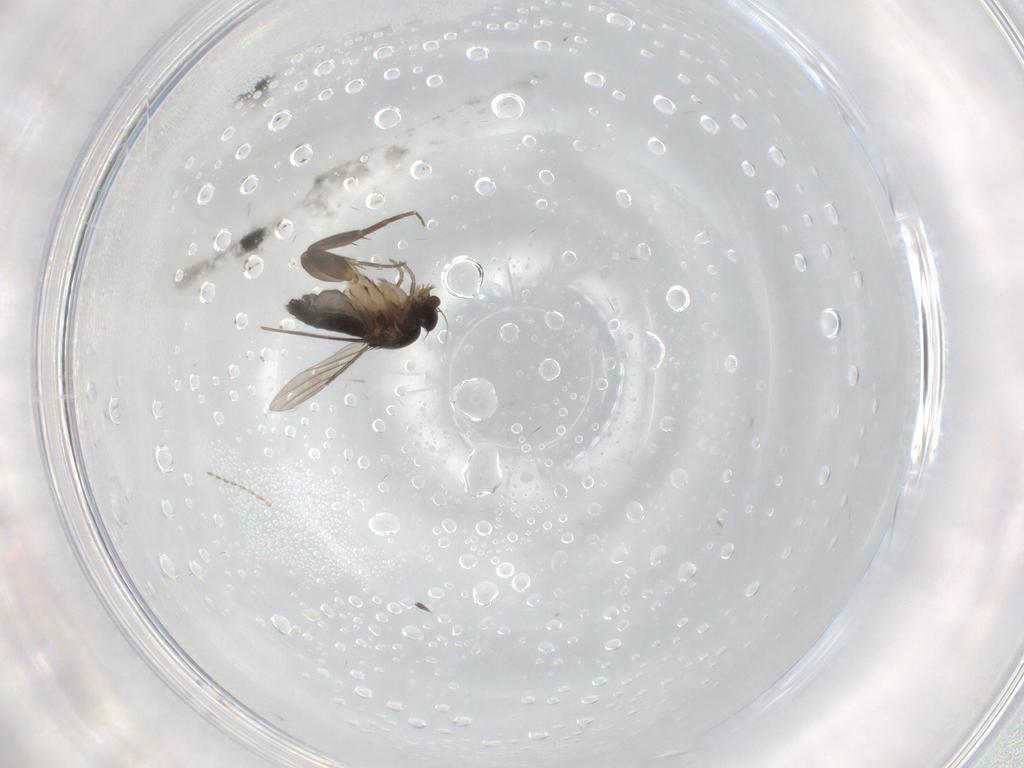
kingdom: Animalia
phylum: Arthropoda
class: Insecta
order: Diptera
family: Cecidomyiidae
